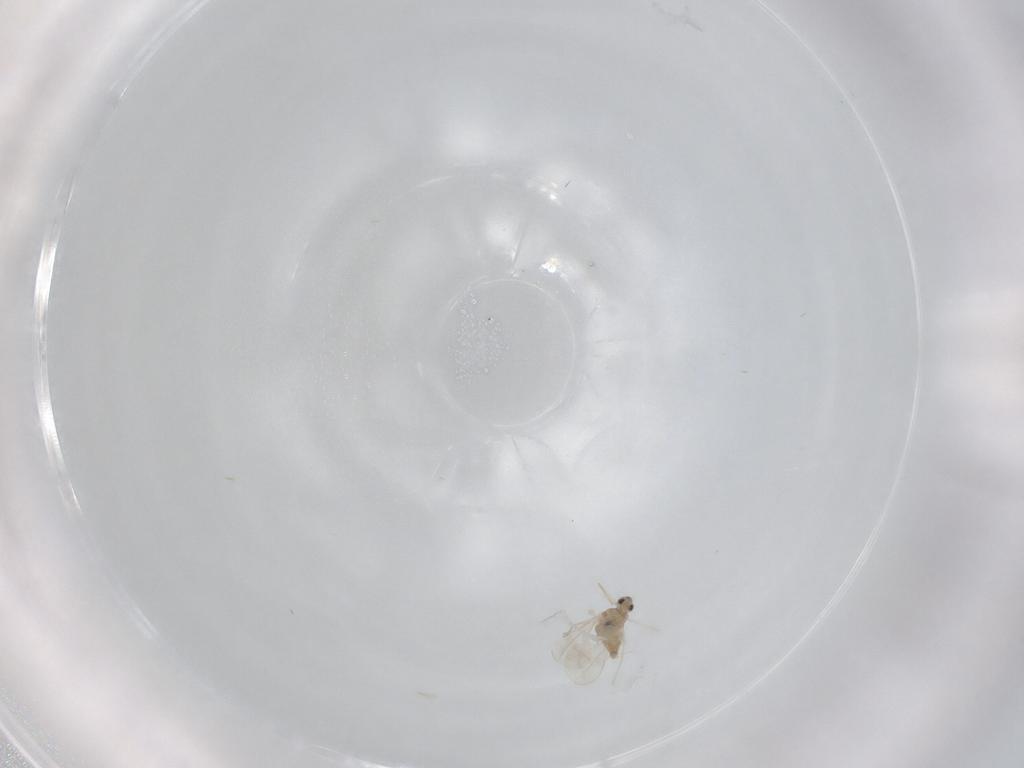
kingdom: Animalia
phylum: Arthropoda
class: Insecta
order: Diptera
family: Cecidomyiidae
